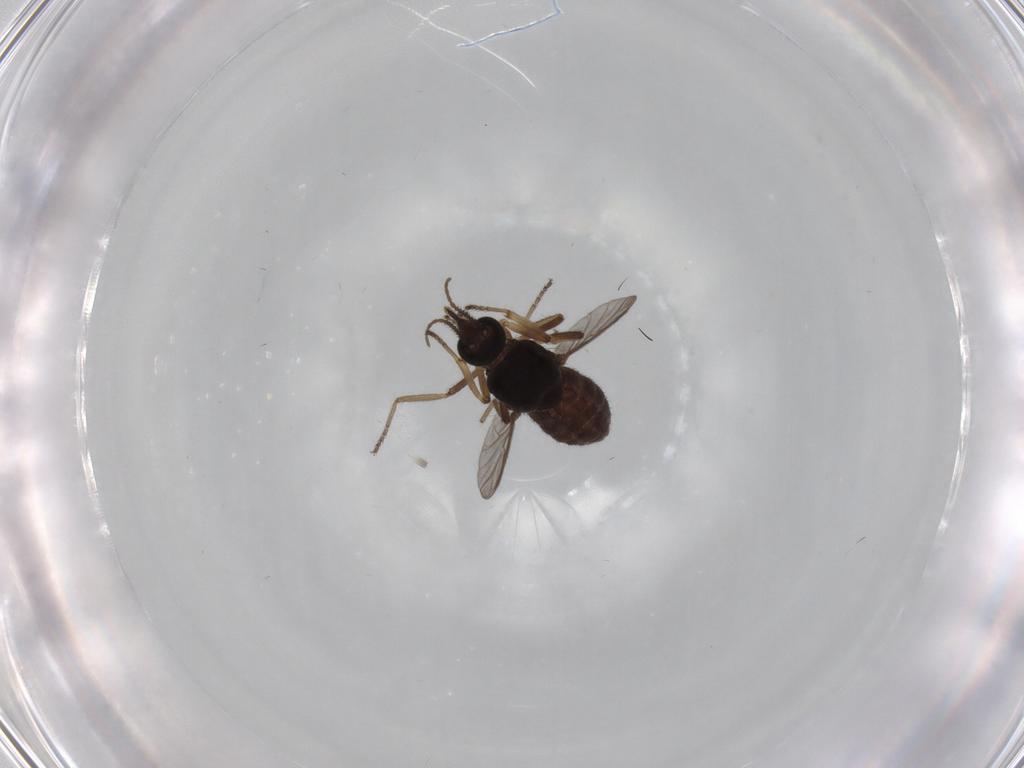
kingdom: Animalia
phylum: Arthropoda
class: Insecta
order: Diptera
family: Ceratopogonidae
